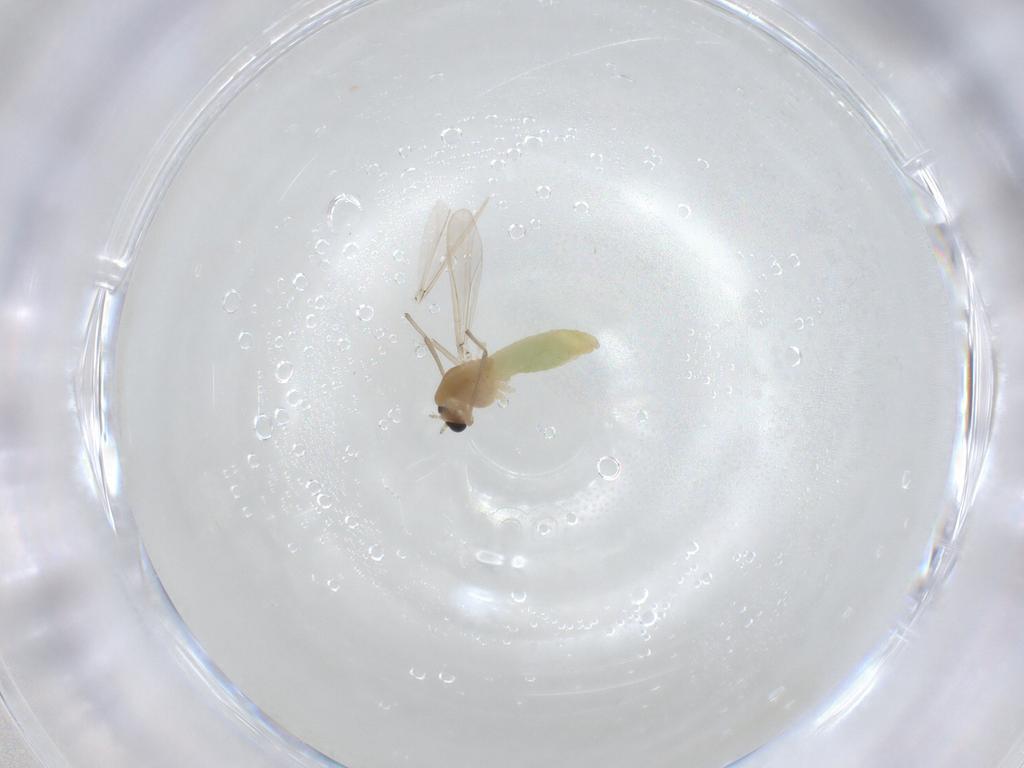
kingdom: Animalia
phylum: Arthropoda
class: Insecta
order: Diptera
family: Chironomidae
